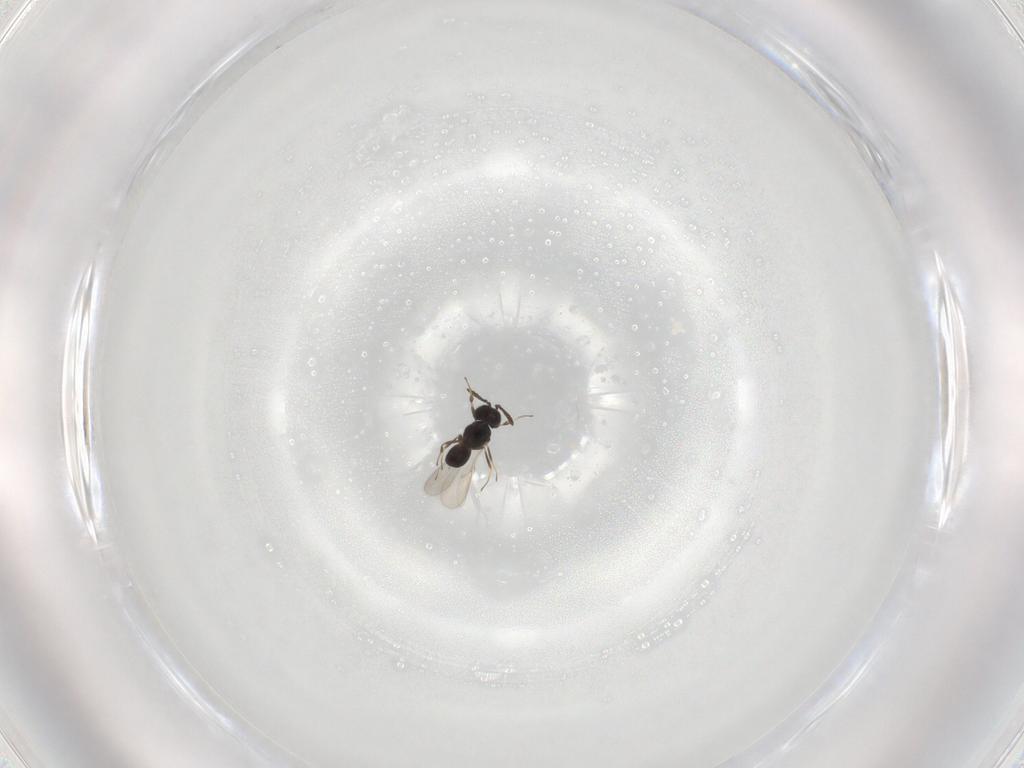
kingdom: Animalia
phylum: Arthropoda
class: Insecta
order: Hymenoptera
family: Scelionidae
